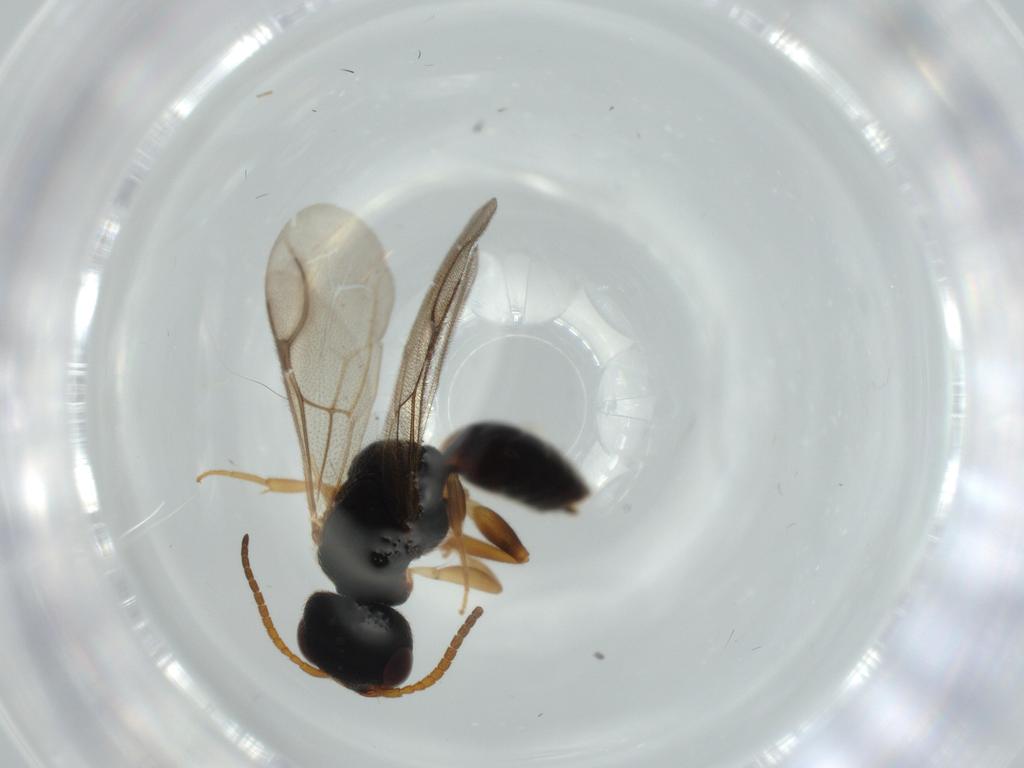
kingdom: Animalia
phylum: Arthropoda
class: Insecta
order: Hymenoptera
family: Bethylidae
